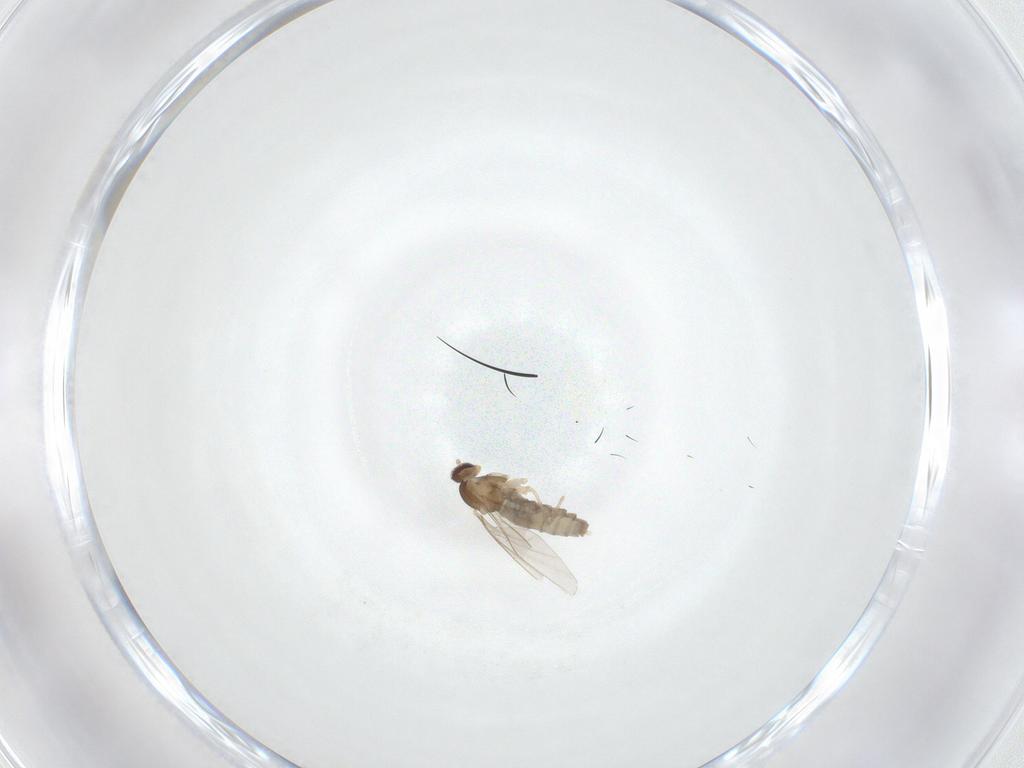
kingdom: Animalia
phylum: Arthropoda
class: Insecta
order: Diptera
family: Cecidomyiidae
